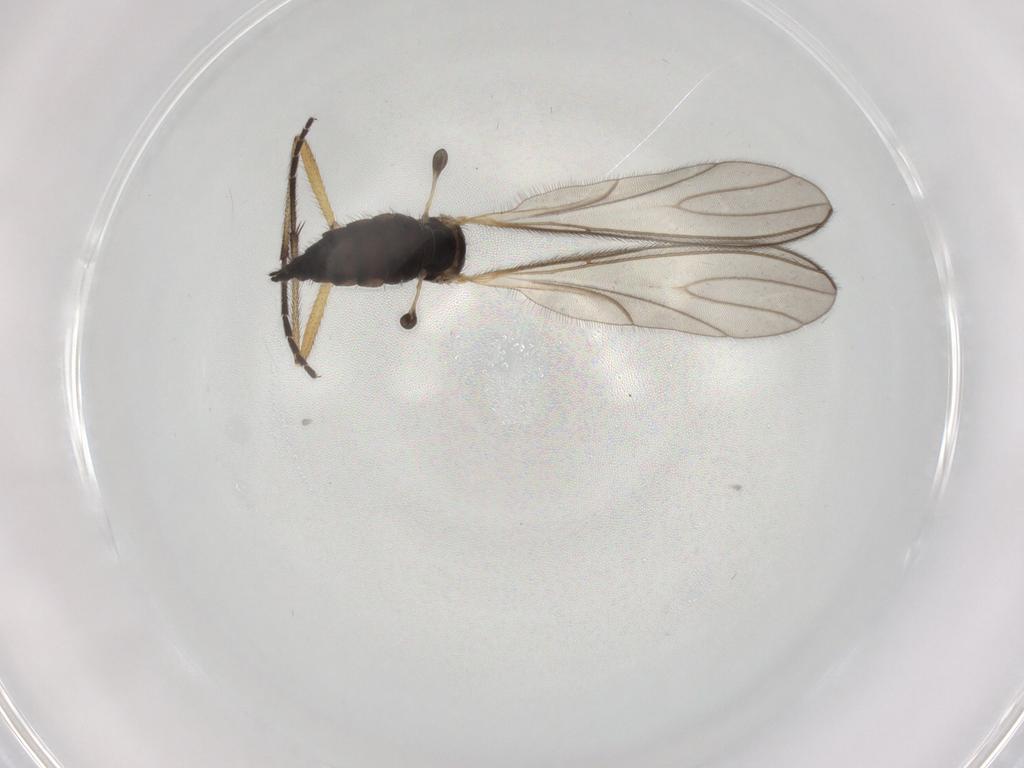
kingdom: Animalia
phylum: Arthropoda
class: Insecta
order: Diptera
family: Sciaridae
